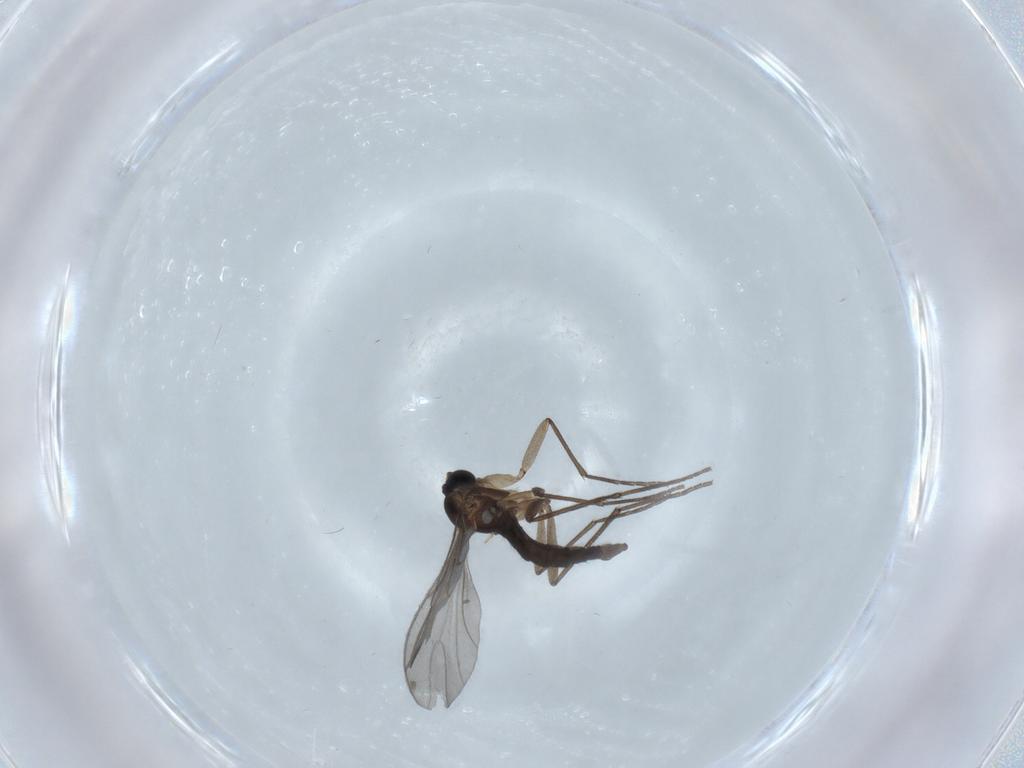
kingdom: Animalia
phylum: Arthropoda
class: Insecta
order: Diptera
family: Sciaridae
